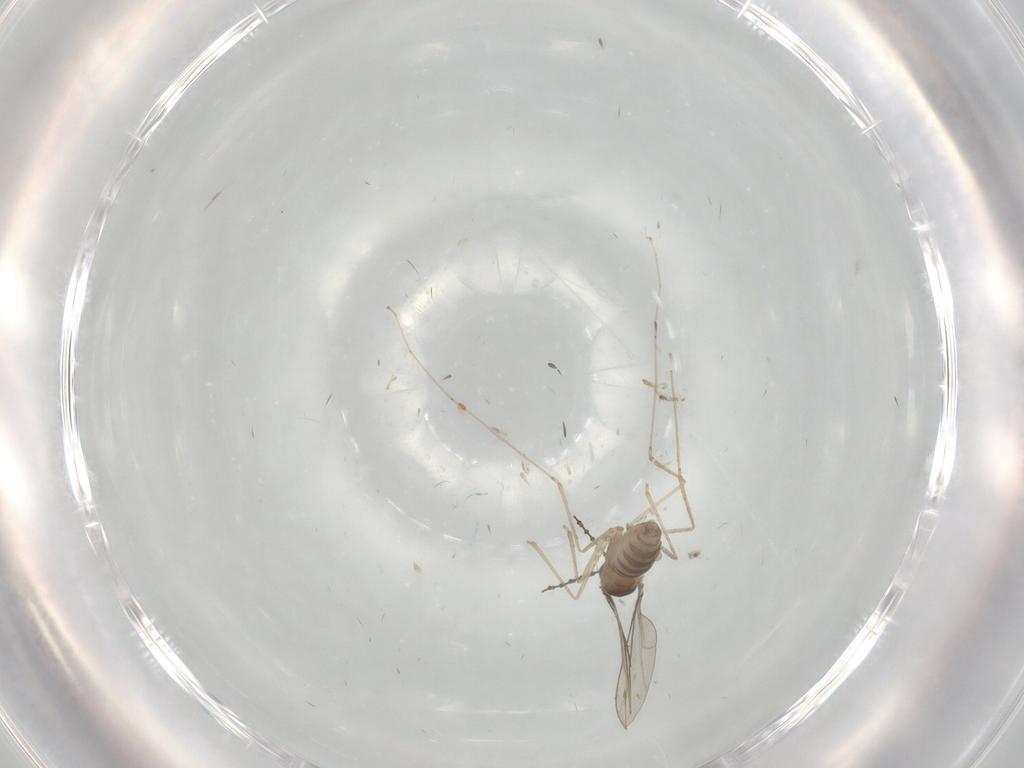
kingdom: Animalia
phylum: Arthropoda
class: Insecta
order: Diptera
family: Cecidomyiidae
